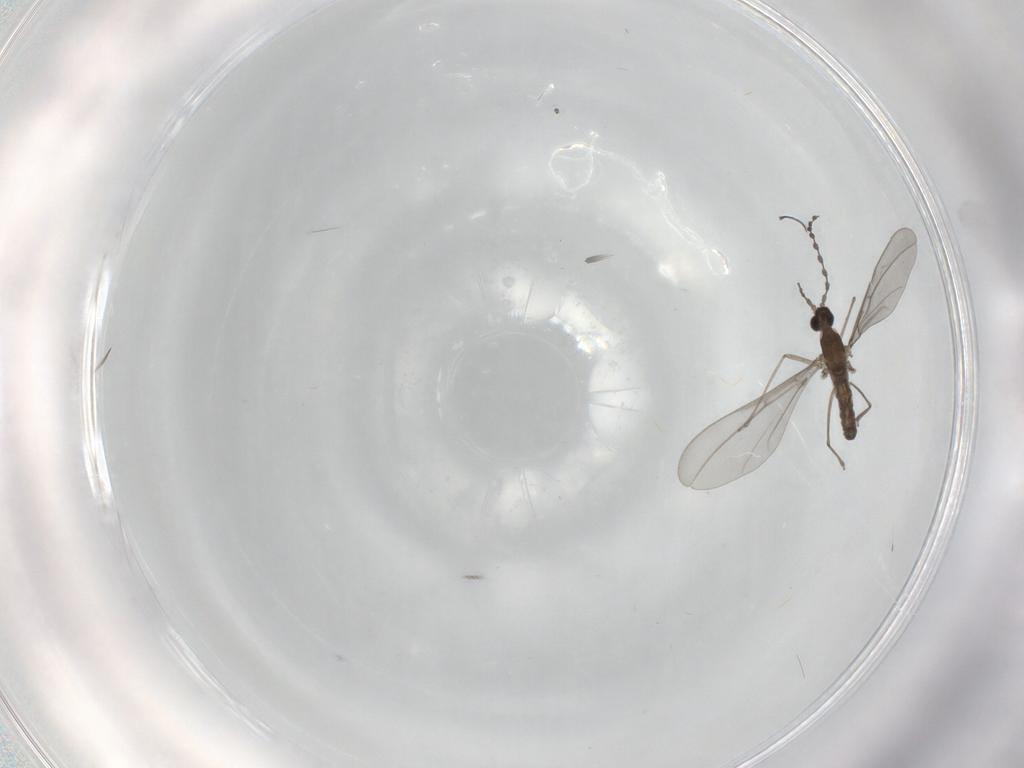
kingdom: Animalia
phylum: Arthropoda
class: Insecta
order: Diptera
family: Cecidomyiidae
